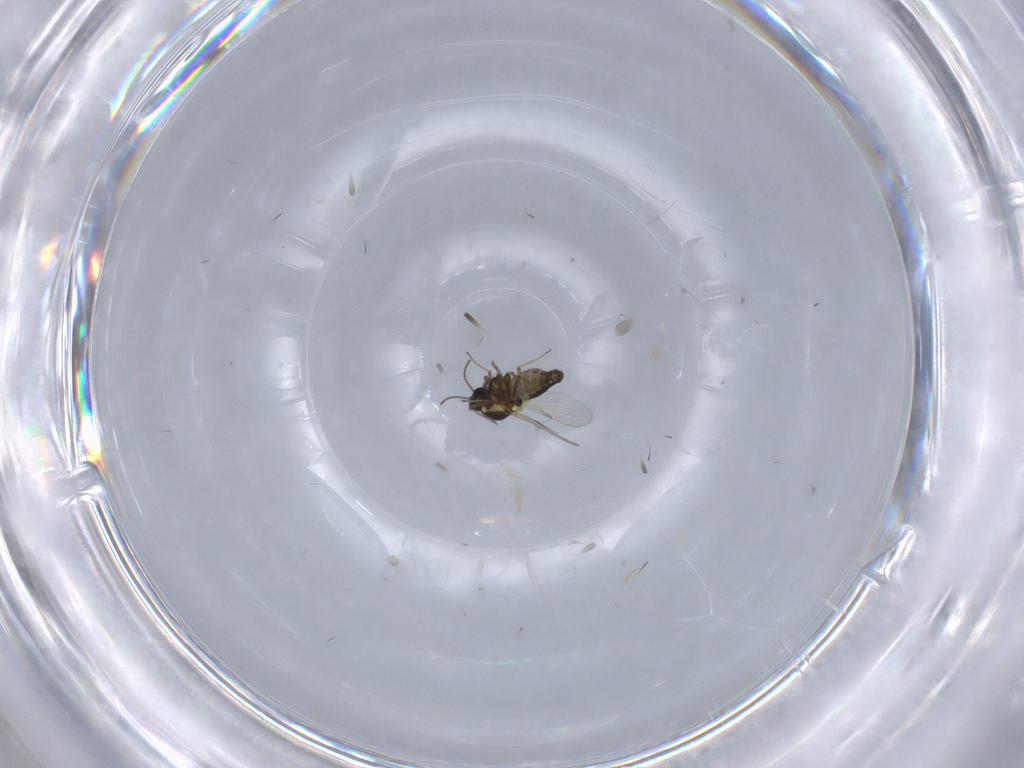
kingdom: Animalia
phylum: Arthropoda
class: Insecta
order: Diptera
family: Ceratopogonidae
